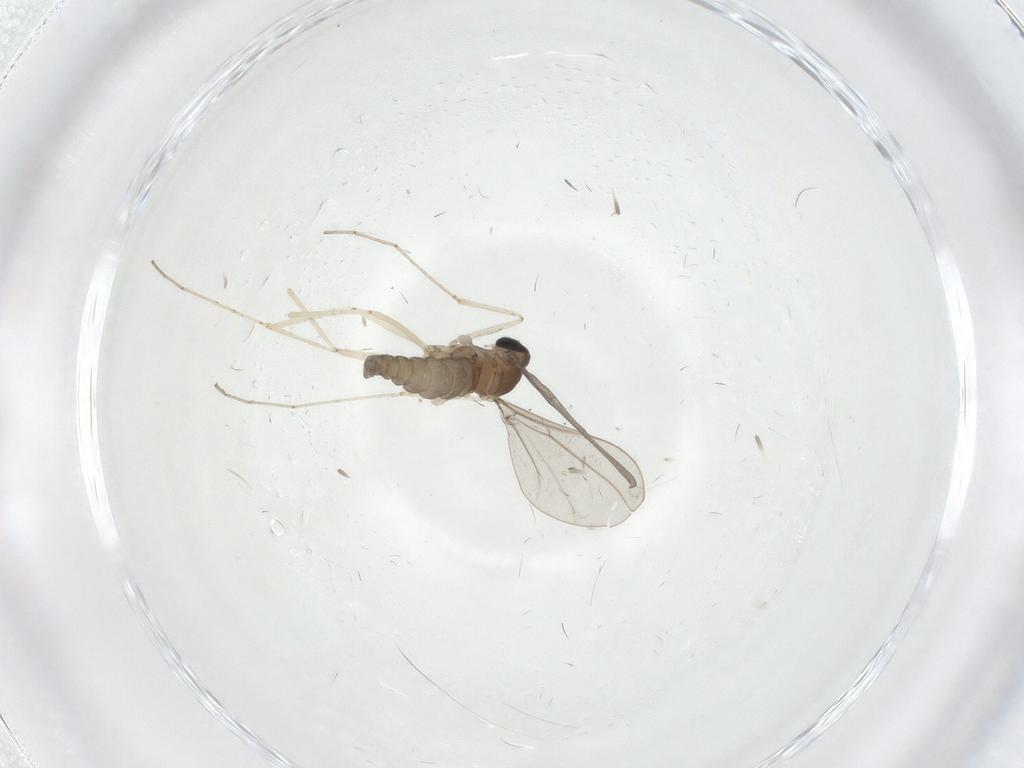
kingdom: Animalia
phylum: Arthropoda
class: Insecta
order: Diptera
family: Cecidomyiidae
